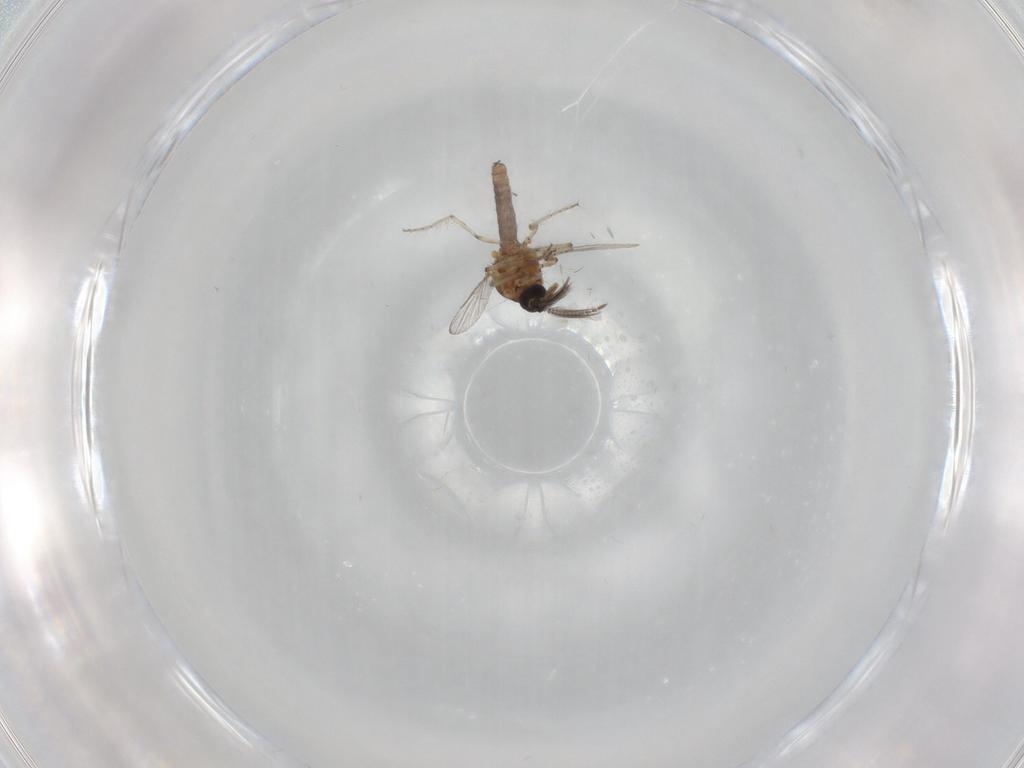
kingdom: Animalia
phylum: Arthropoda
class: Insecta
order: Diptera
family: Ceratopogonidae
